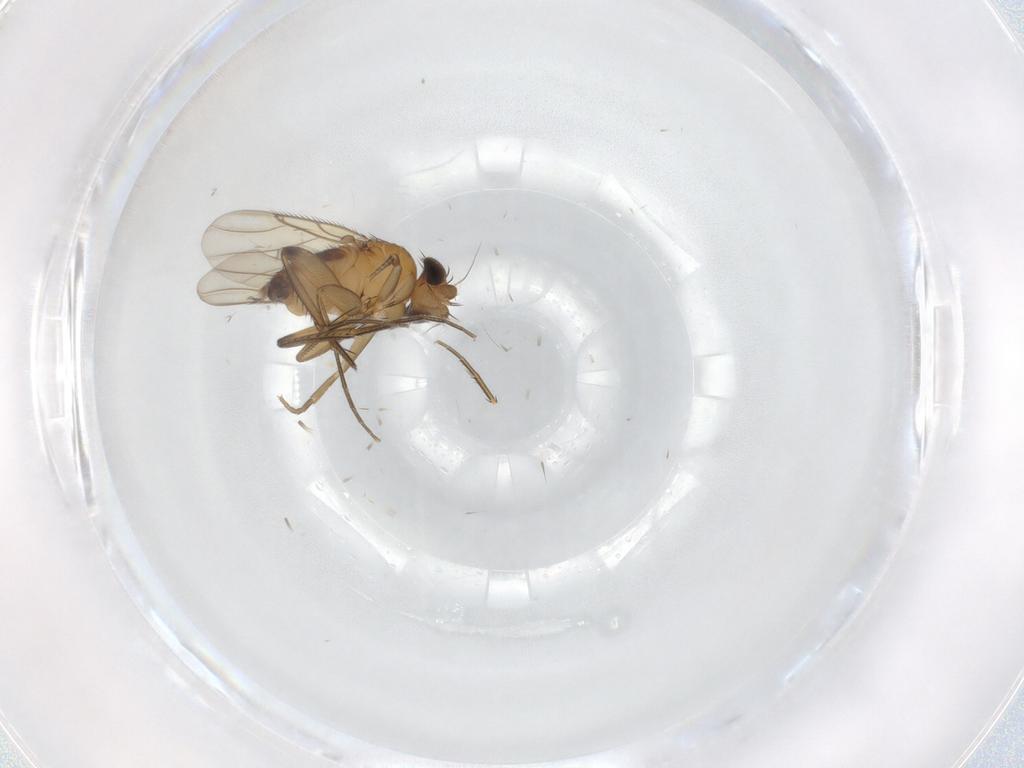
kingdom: Animalia
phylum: Arthropoda
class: Insecta
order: Diptera
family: Phoridae
